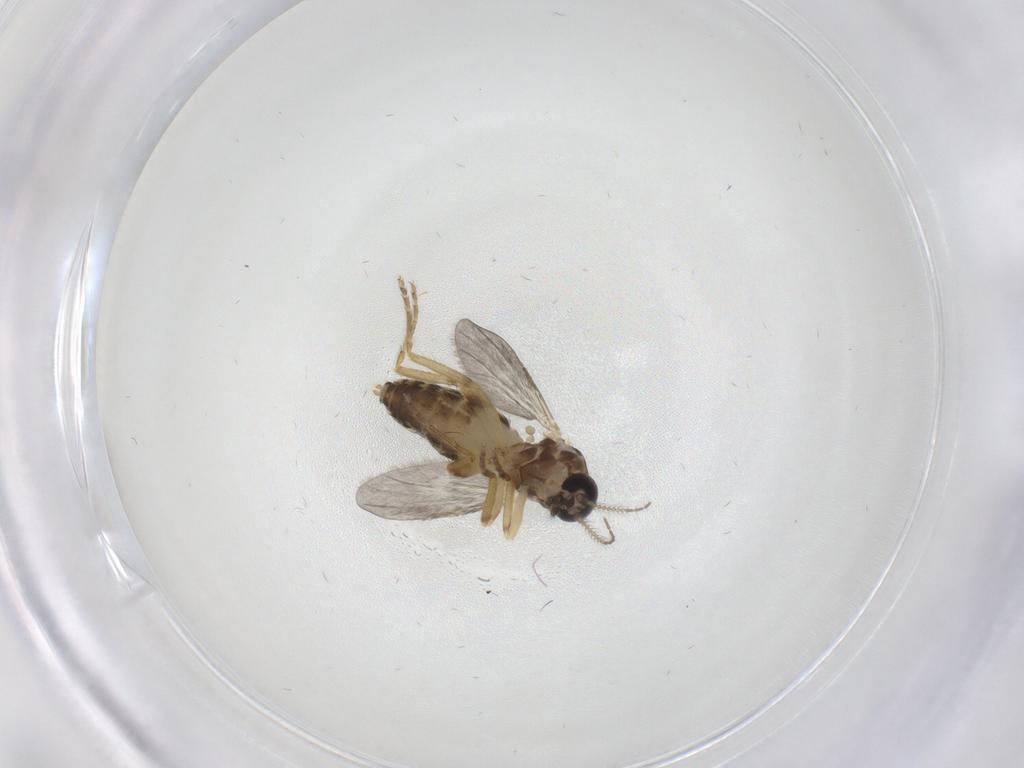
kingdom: Animalia
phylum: Arthropoda
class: Insecta
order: Diptera
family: Ceratopogonidae
